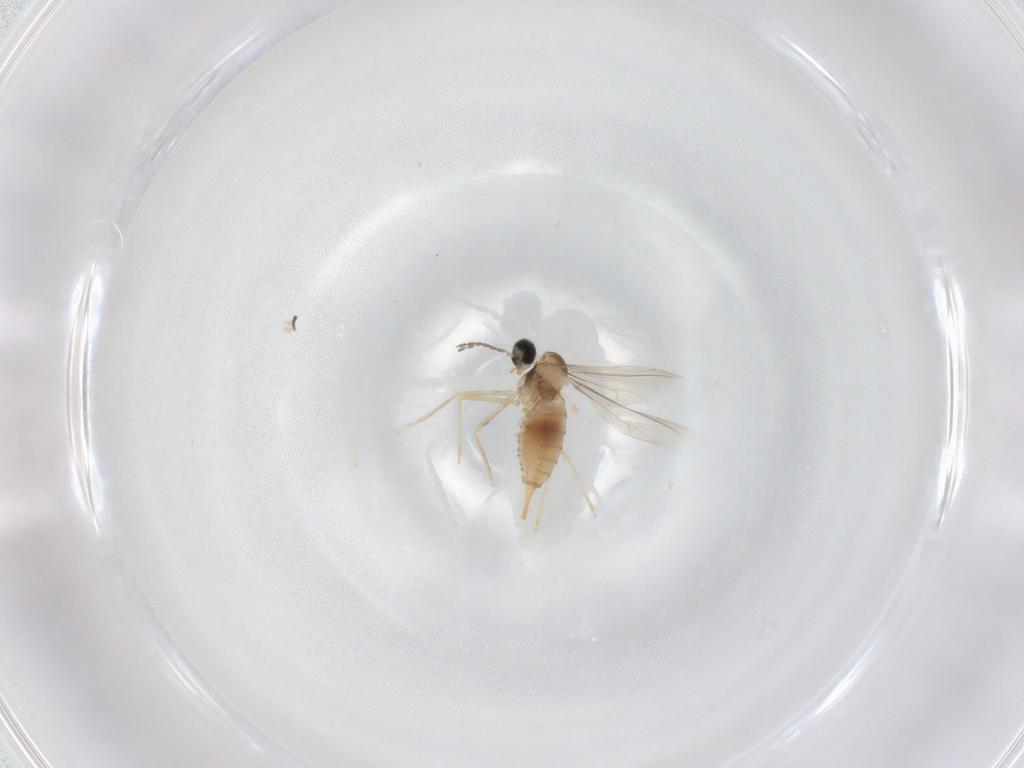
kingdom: Animalia
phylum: Arthropoda
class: Insecta
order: Diptera
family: Cecidomyiidae
